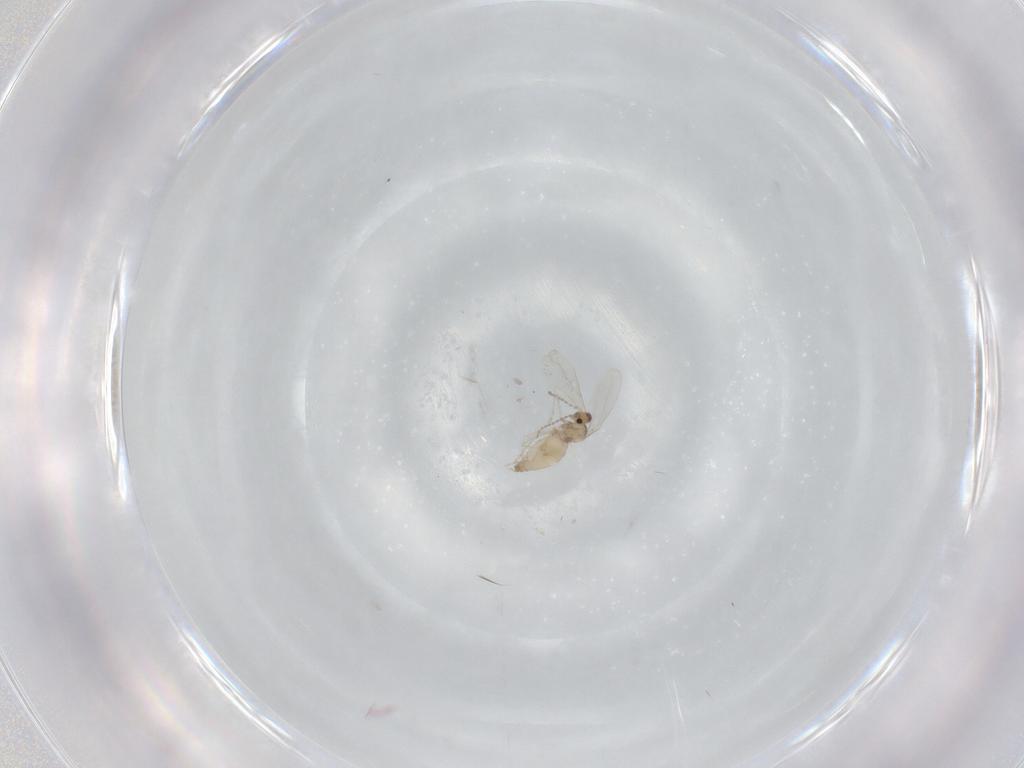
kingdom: Animalia
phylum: Arthropoda
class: Insecta
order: Diptera
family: Cecidomyiidae
